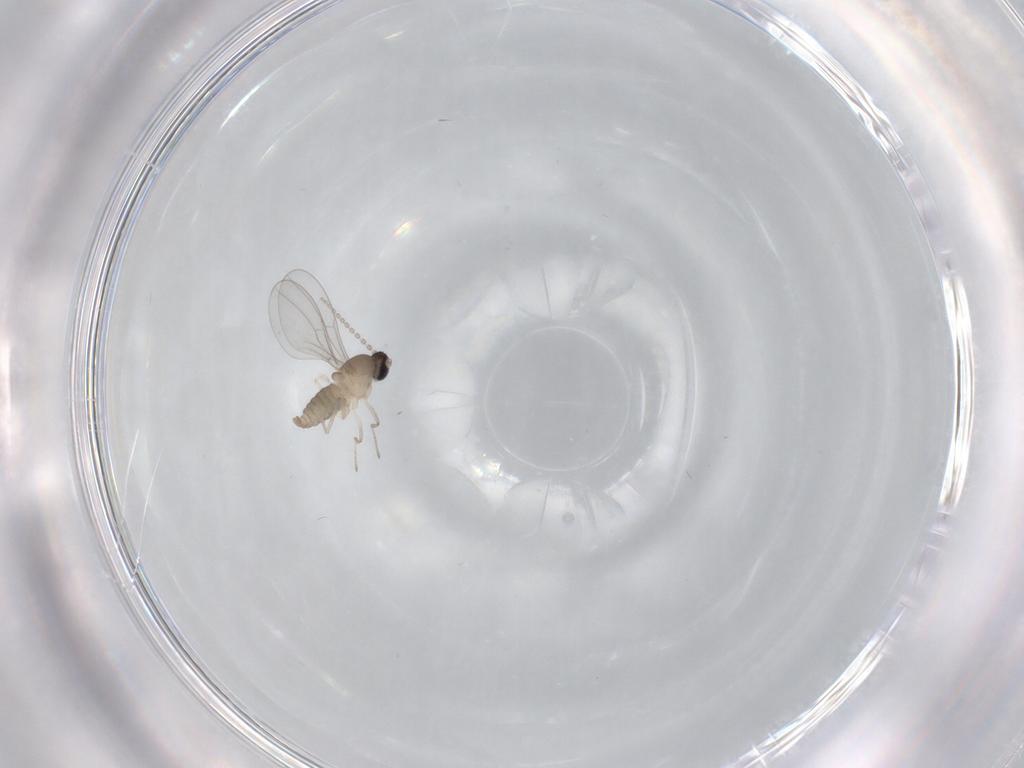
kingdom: Animalia
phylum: Arthropoda
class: Insecta
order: Diptera
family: Cecidomyiidae
